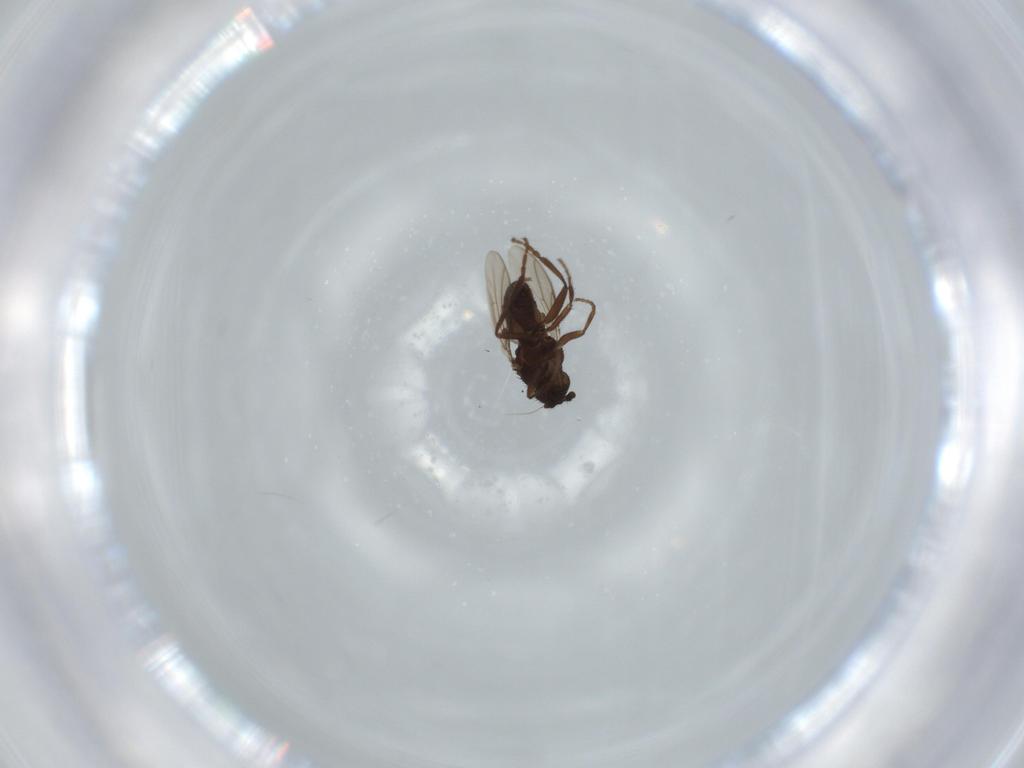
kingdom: Animalia
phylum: Arthropoda
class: Insecta
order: Diptera
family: Sphaeroceridae
